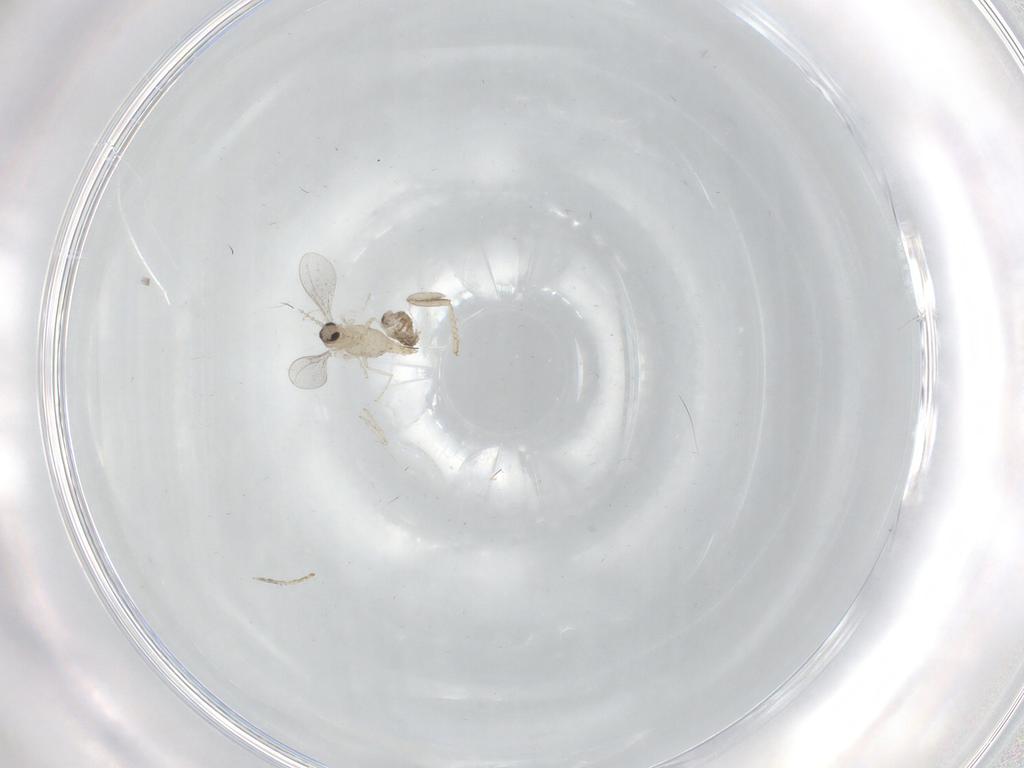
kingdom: Animalia
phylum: Arthropoda
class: Insecta
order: Diptera
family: Cecidomyiidae
